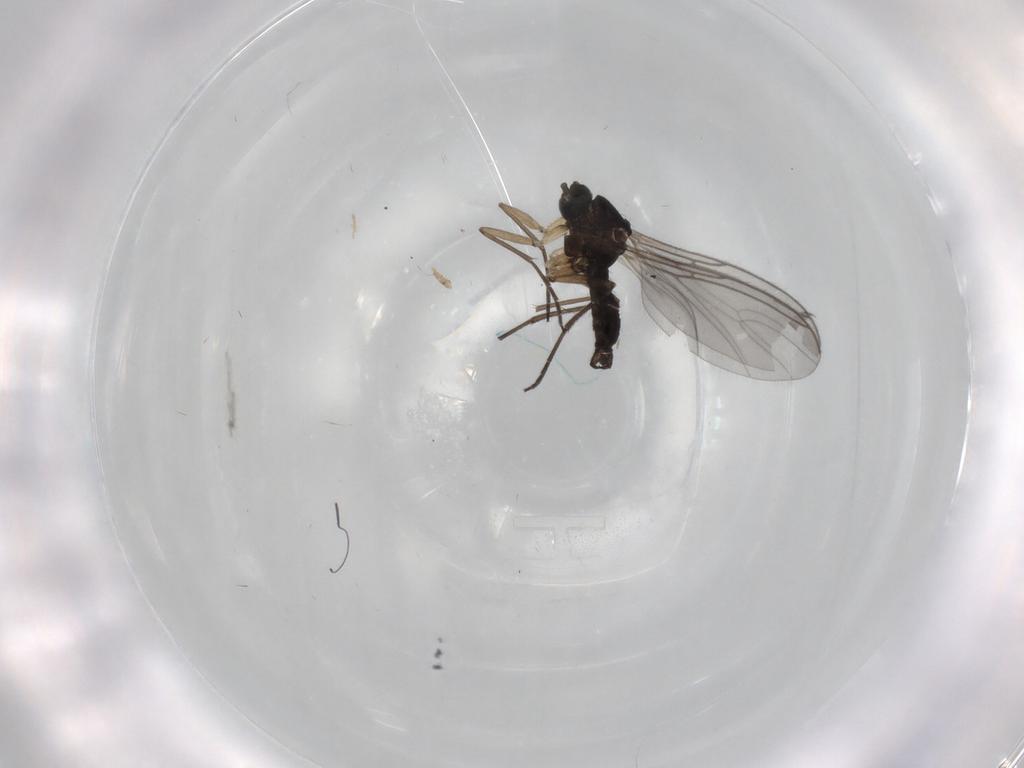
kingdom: Animalia
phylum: Arthropoda
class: Insecta
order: Diptera
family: Sciaridae
